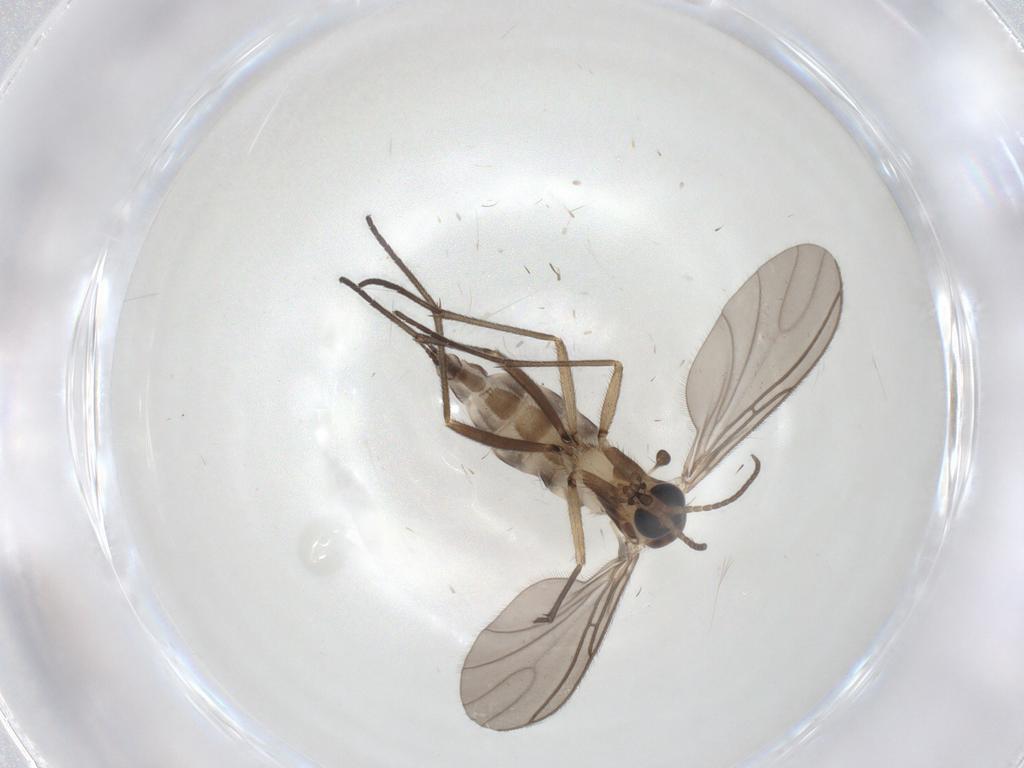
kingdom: Animalia
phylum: Arthropoda
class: Insecta
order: Diptera
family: Sciaridae
